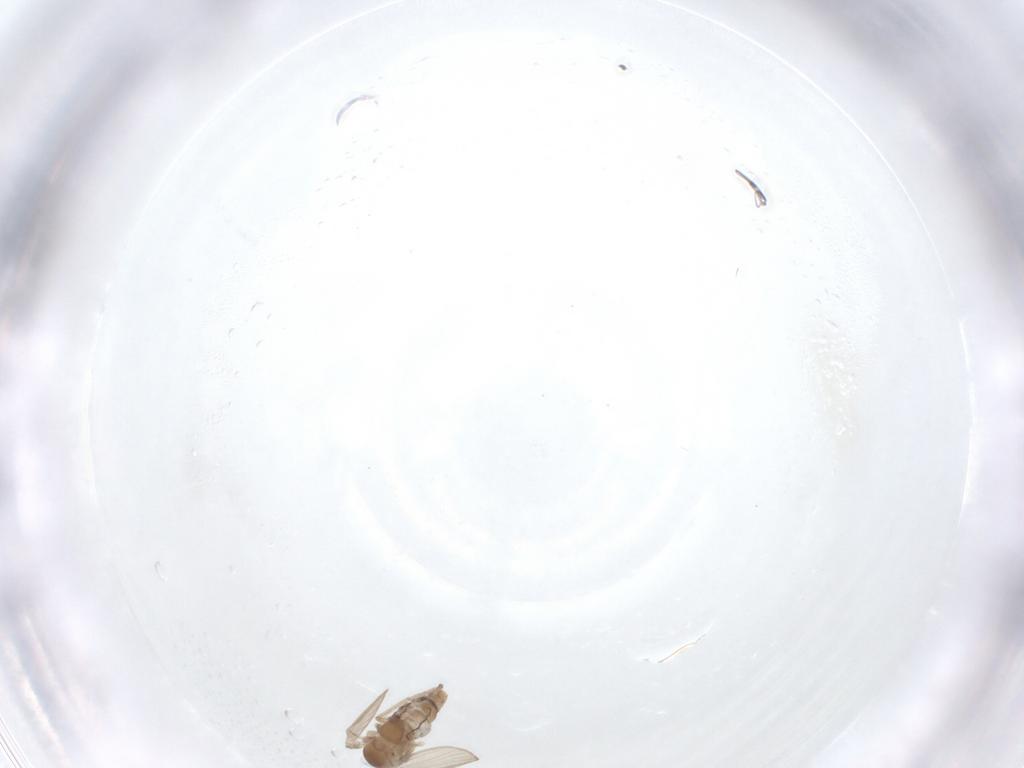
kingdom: Animalia
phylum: Arthropoda
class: Insecta
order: Diptera
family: Psychodidae
